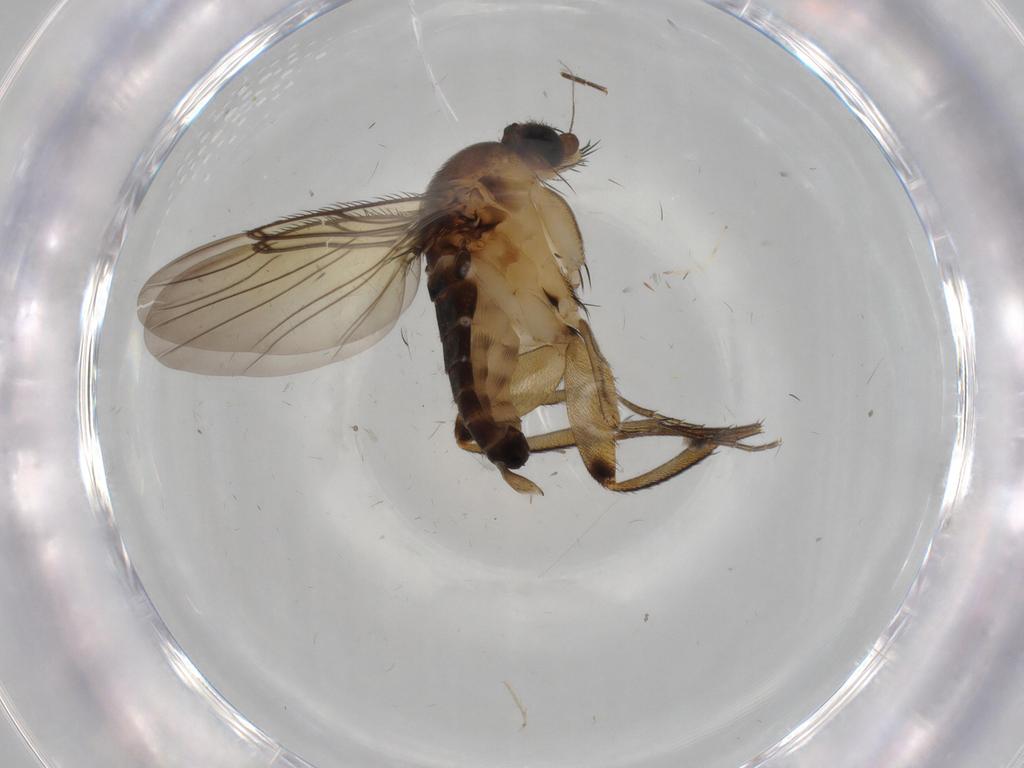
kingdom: Animalia
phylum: Arthropoda
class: Insecta
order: Diptera
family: Phoridae
